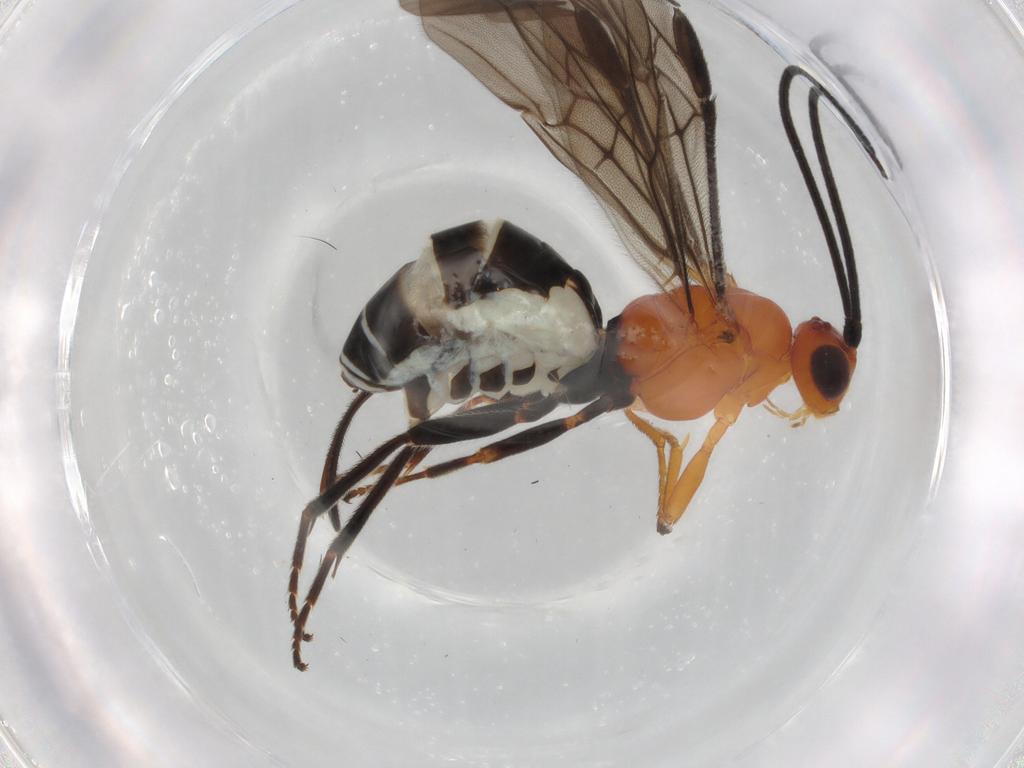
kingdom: Animalia
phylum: Arthropoda
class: Insecta
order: Hymenoptera
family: Braconidae
